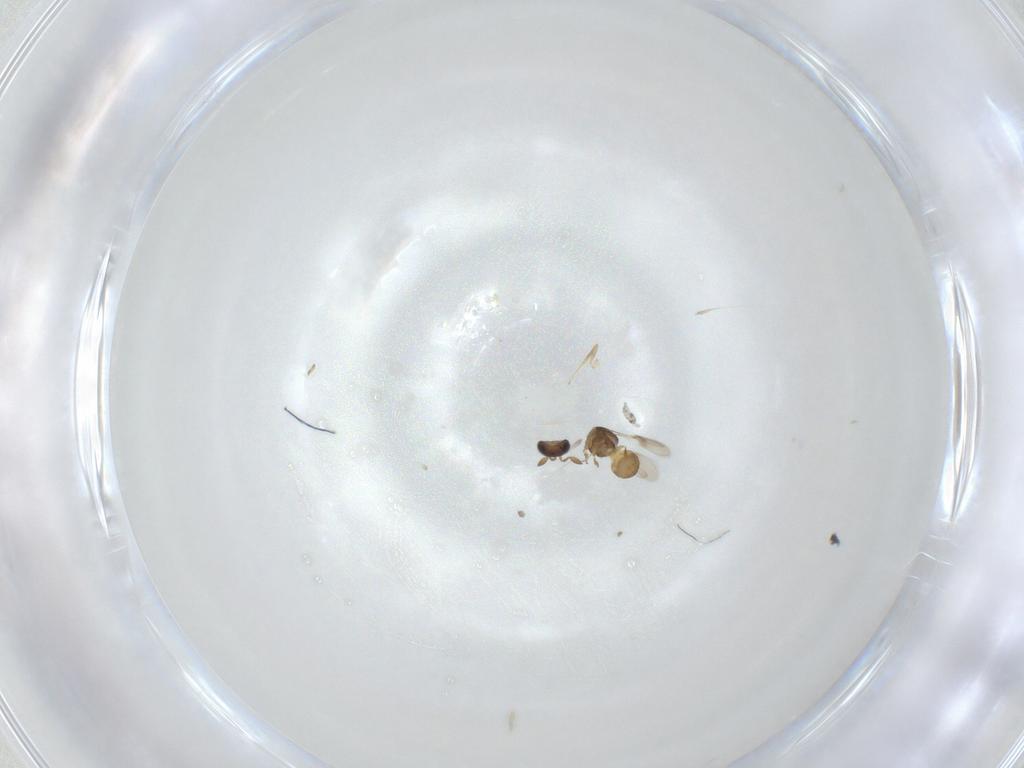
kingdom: Animalia
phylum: Arthropoda
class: Insecta
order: Hymenoptera
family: Scelionidae
